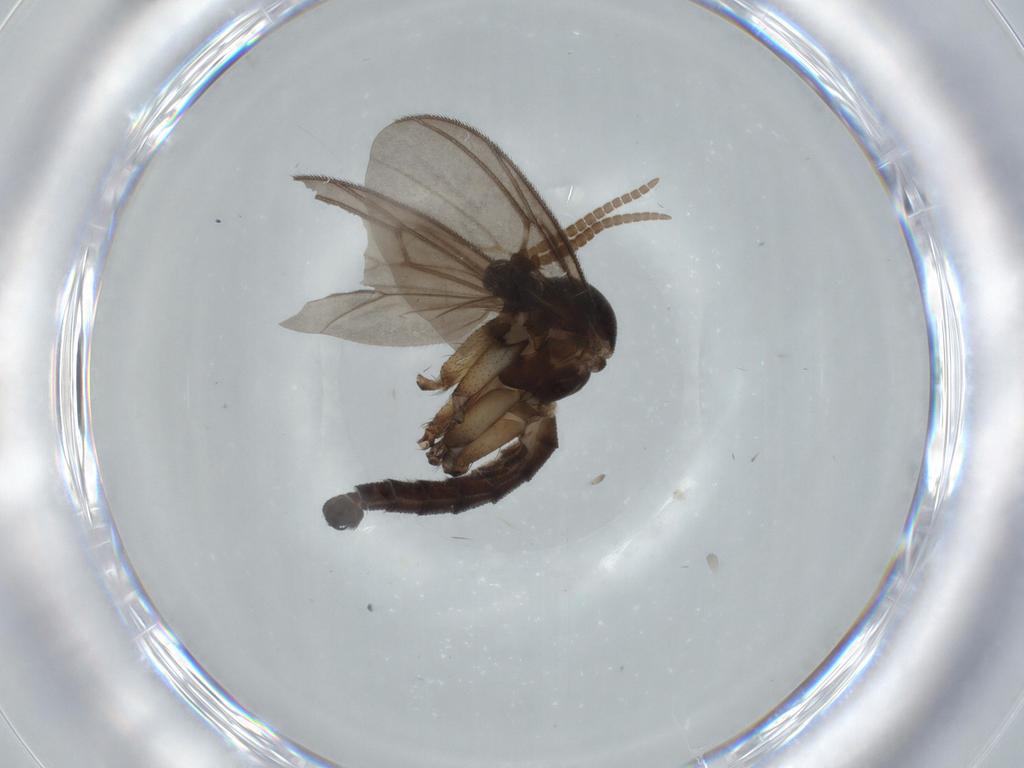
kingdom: Animalia
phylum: Arthropoda
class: Insecta
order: Diptera
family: Mycetophilidae
